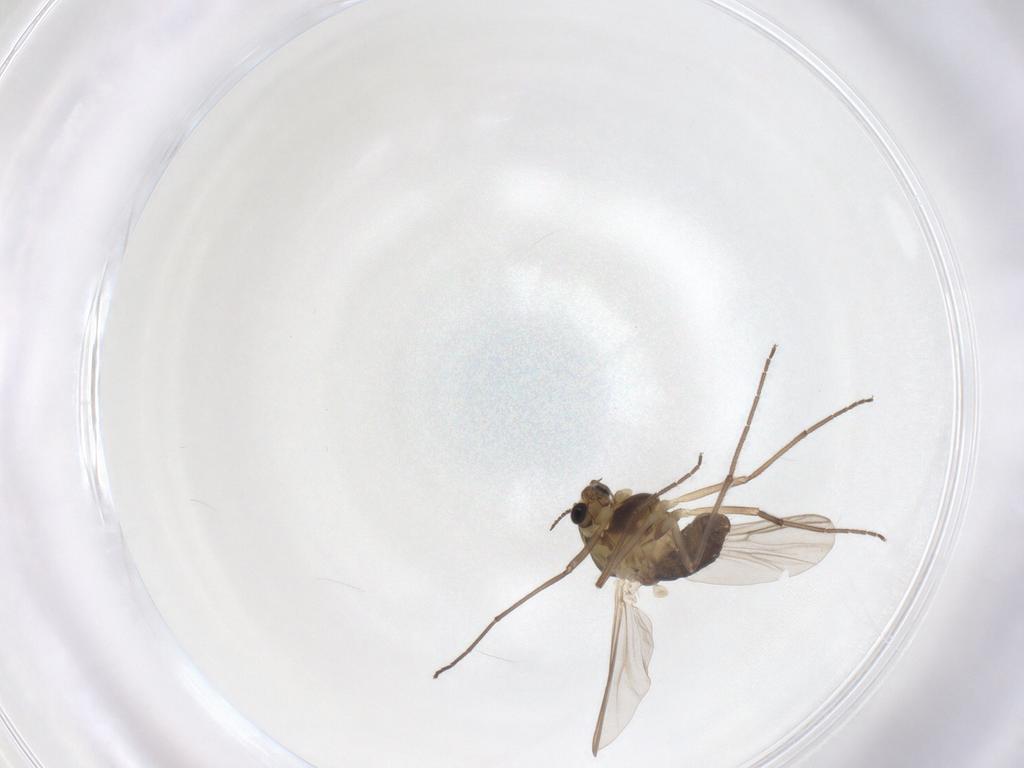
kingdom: Animalia
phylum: Arthropoda
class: Insecta
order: Diptera
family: Chironomidae
